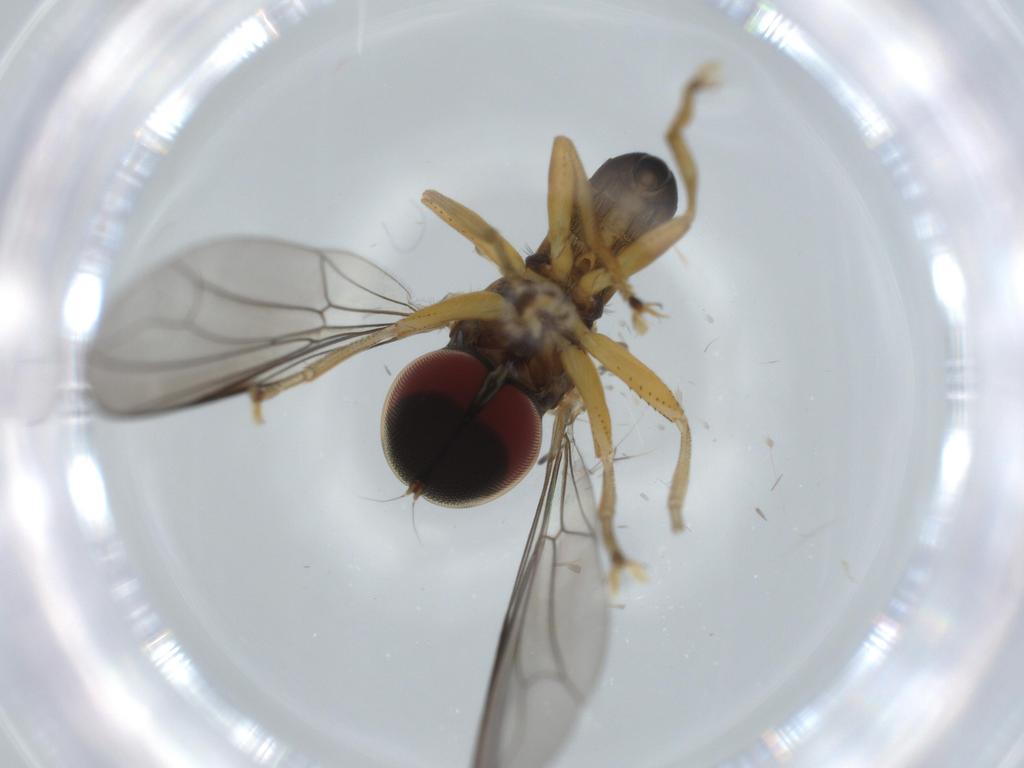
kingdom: Animalia
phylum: Arthropoda
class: Insecta
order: Diptera
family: Pipunculidae
